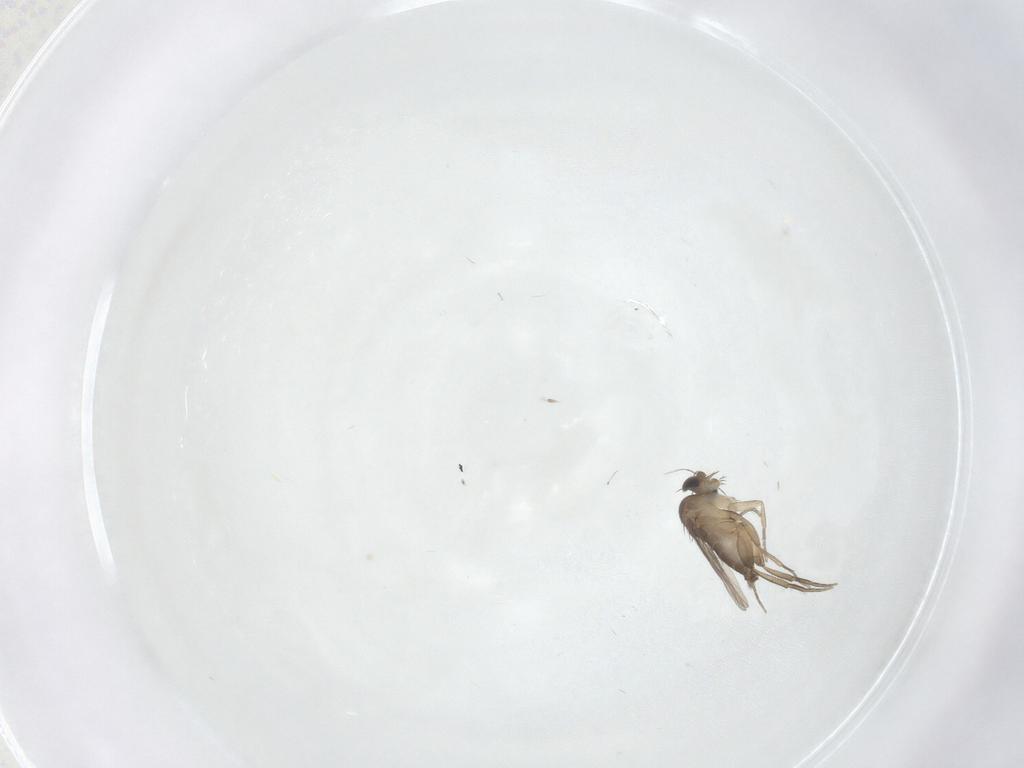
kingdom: Animalia
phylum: Arthropoda
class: Insecta
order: Diptera
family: Phoridae
